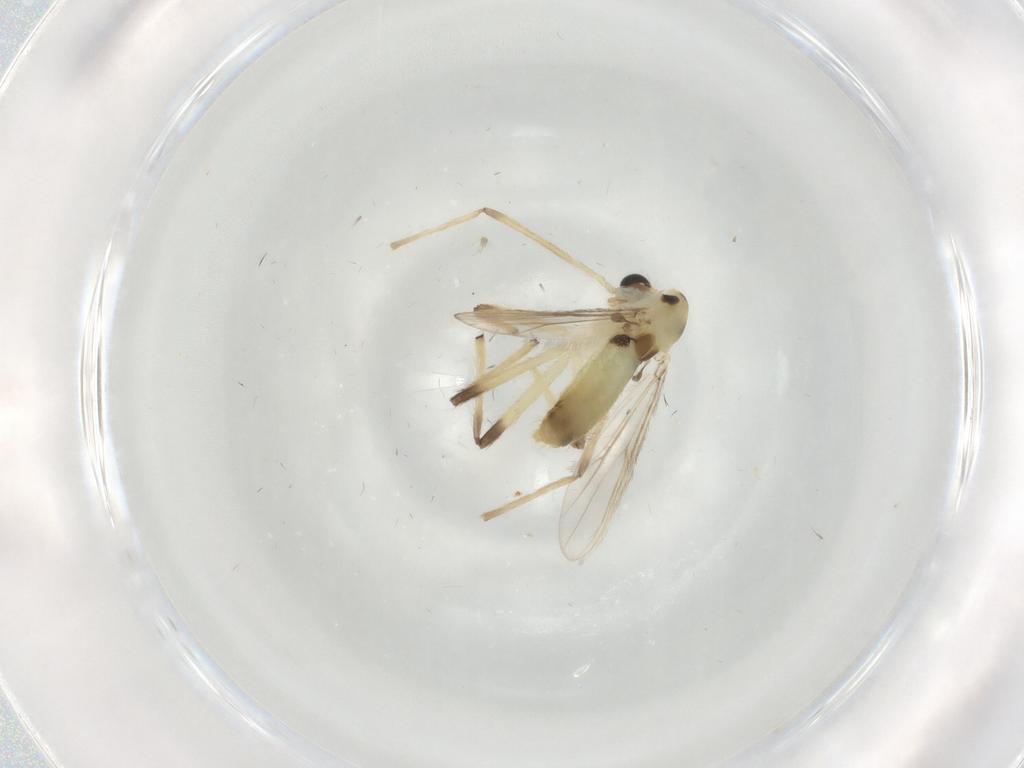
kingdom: Animalia
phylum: Arthropoda
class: Insecta
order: Diptera
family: Chironomidae
